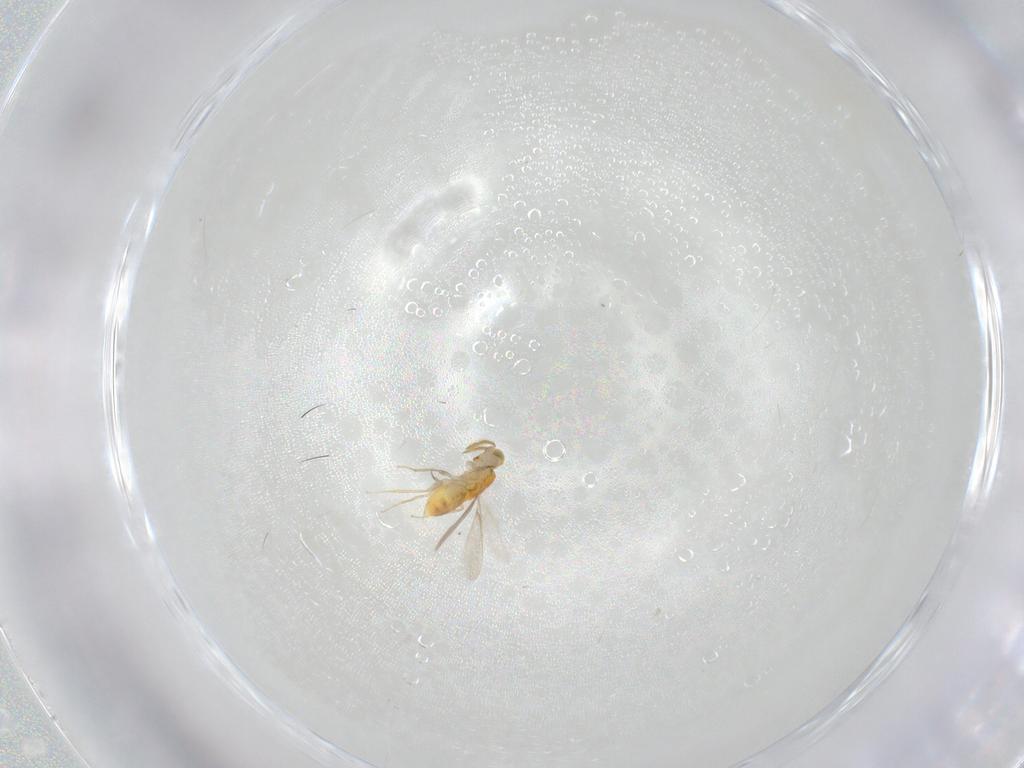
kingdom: Animalia
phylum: Arthropoda
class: Insecta
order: Hymenoptera
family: Aphelinidae
